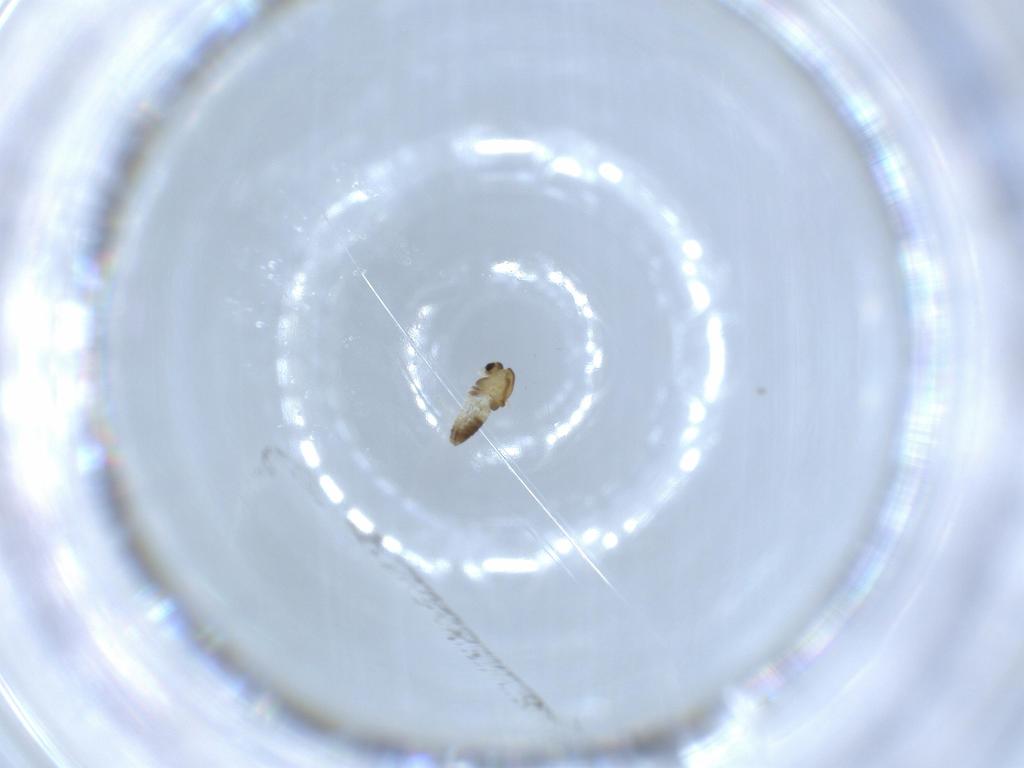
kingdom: Animalia
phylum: Arthropoda
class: Insecta
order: Diptera
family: Chironomidae
